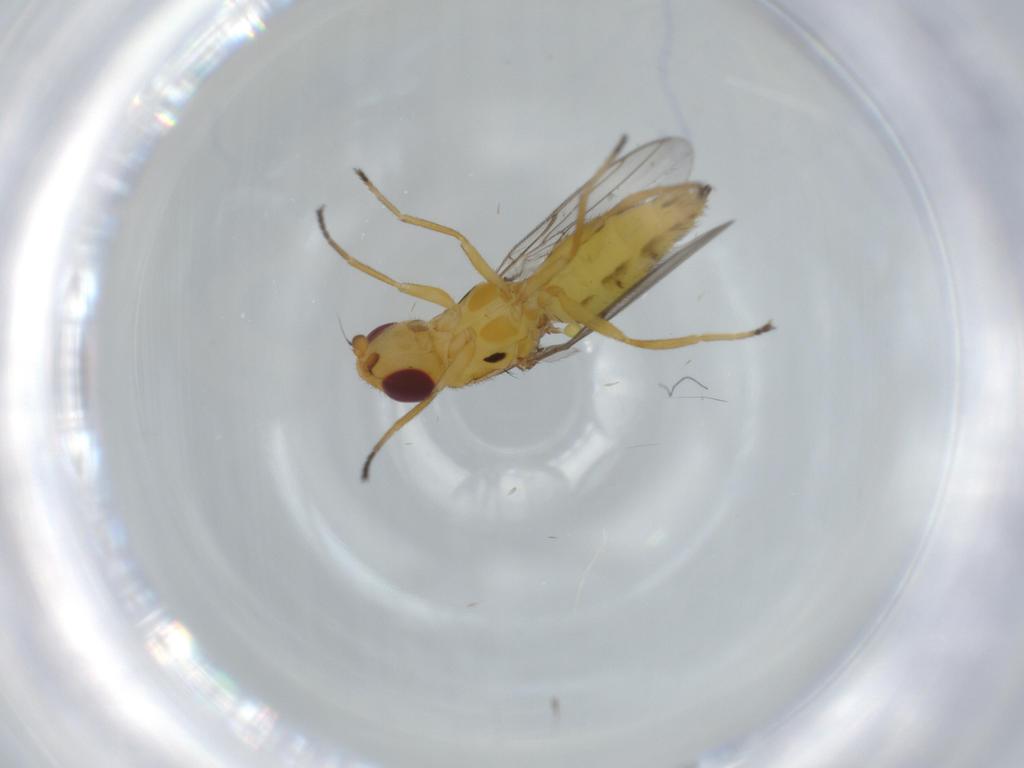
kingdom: Animalia
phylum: Arthropoda
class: Insecta
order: Diptera
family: Chloropidae
